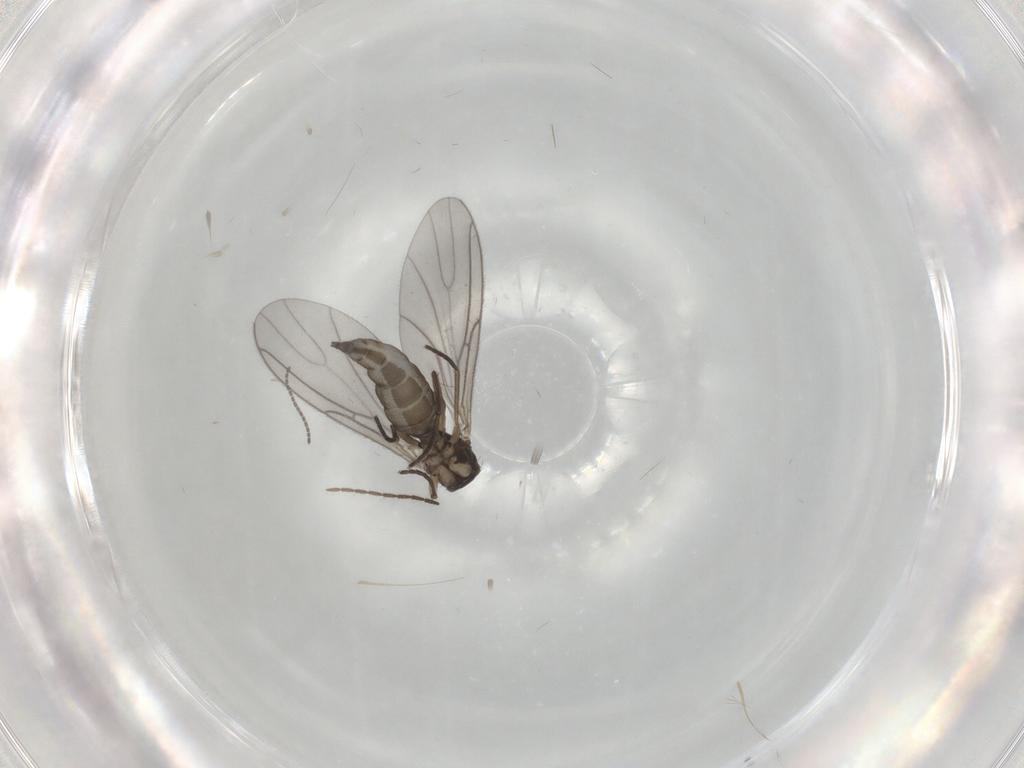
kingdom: Animalia
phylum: Arthropoda
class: Insecta
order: Diptera
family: Sciaridae
